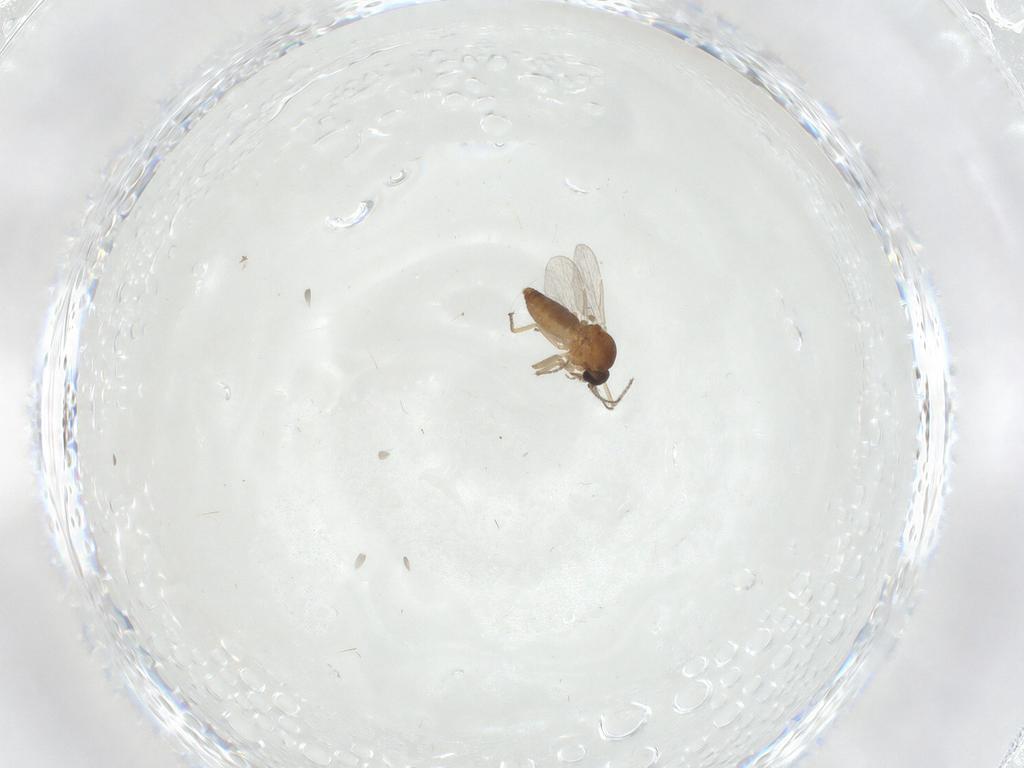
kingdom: Animalia
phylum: Arthropoda
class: Insecta
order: Diptera
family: Ceratopogonidae
